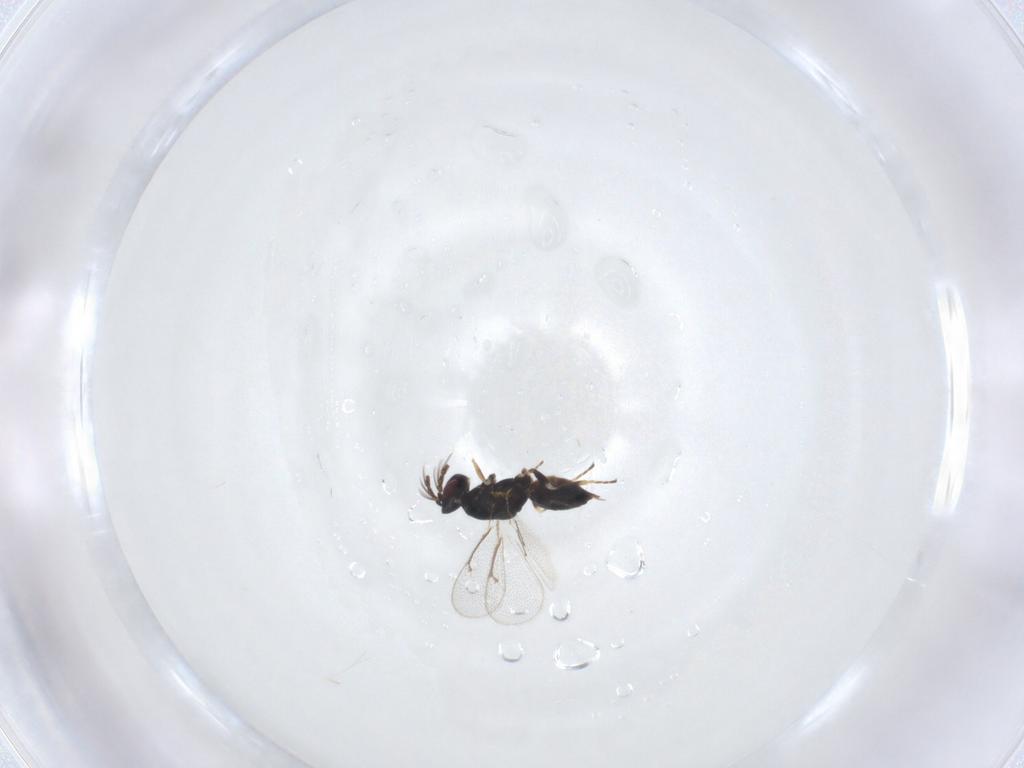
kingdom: Animalia
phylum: Arthropoda
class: Insecta
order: Hymenoptera
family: Eulophidae
